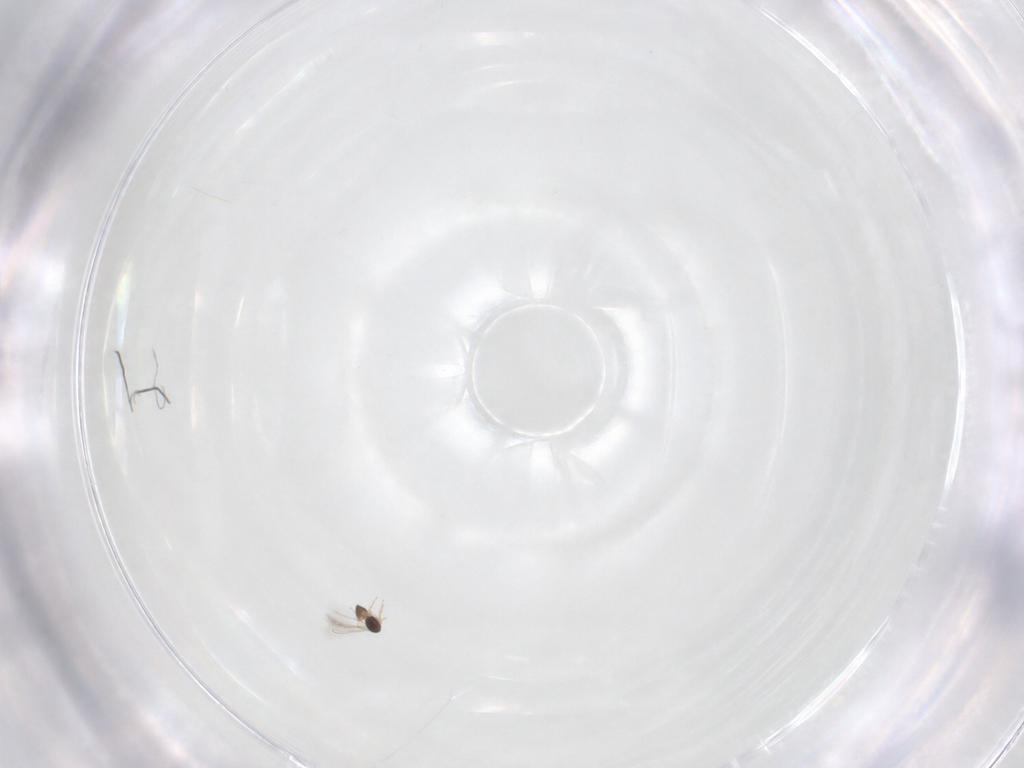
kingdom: Animalia
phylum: Arthropoda
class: Insecta
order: Hymenoptera
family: Mymaridae
